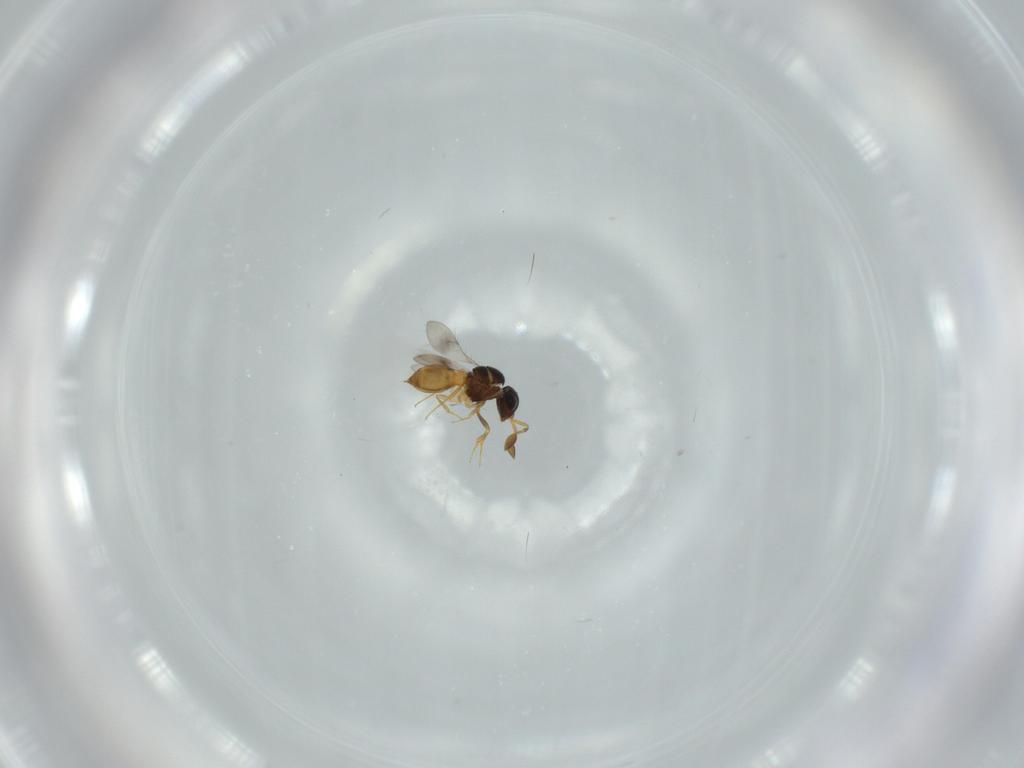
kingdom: Animalia
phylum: Arthropoda
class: Insecta
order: Hymenoptera
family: Scelionidae
